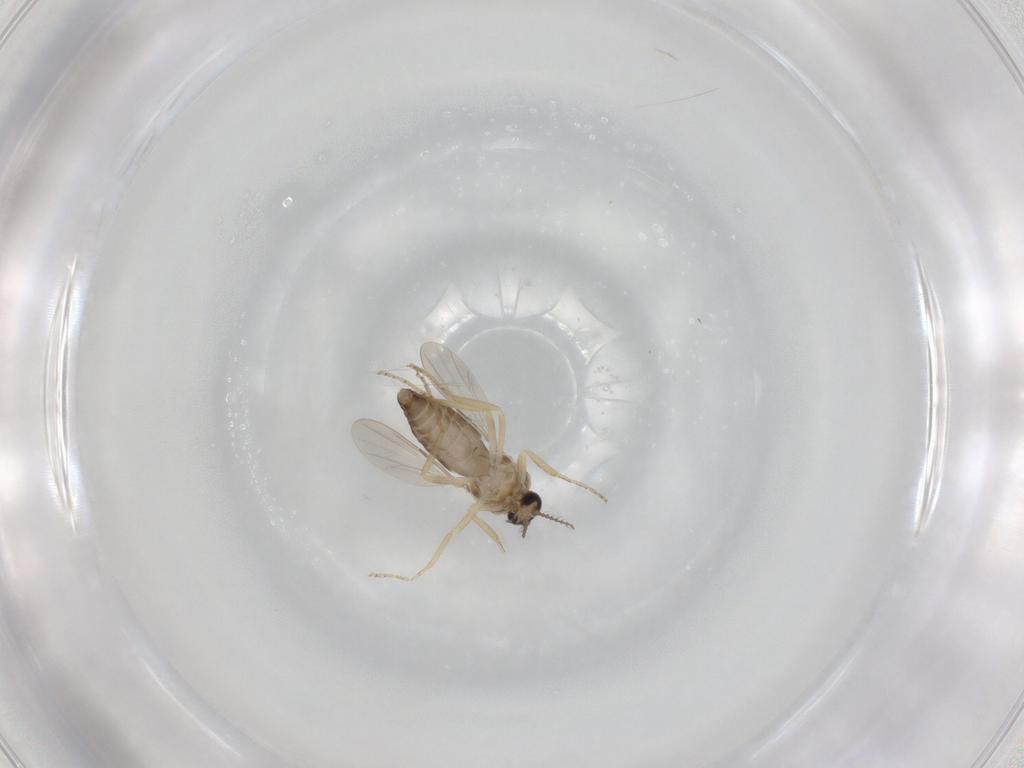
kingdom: Animalia
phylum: Arthropoda
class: Insecta
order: Diptera
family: Ceratopogonidae
